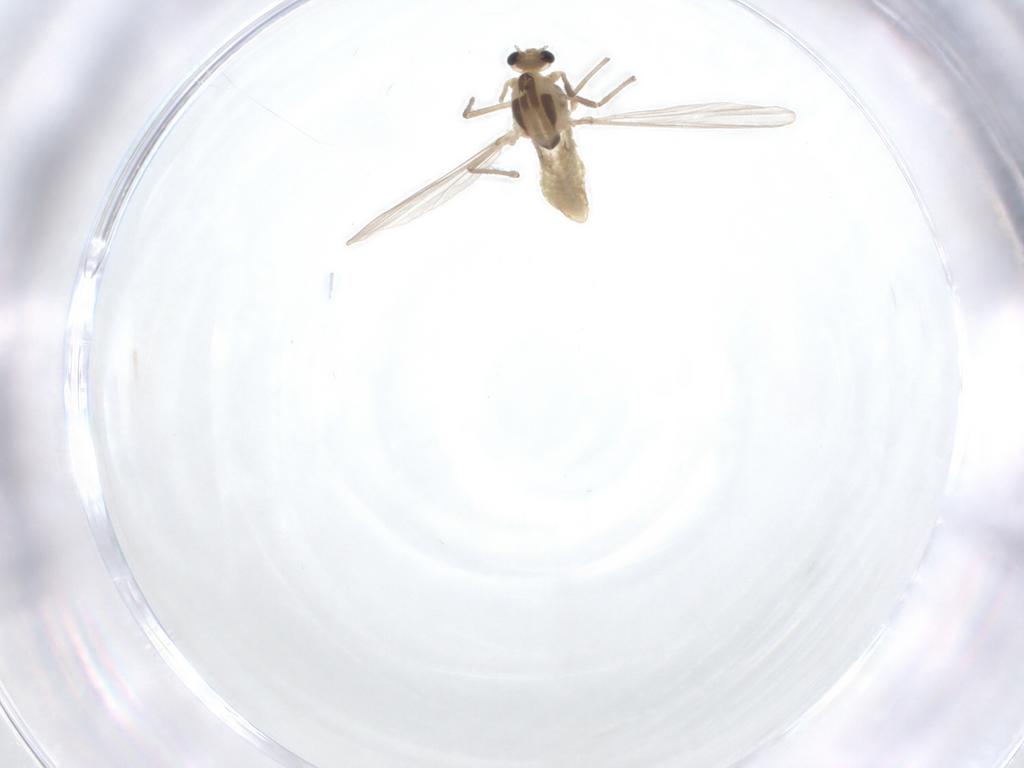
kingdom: Animalia
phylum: Arthropoda
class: Insecta
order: Diptera
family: Chironomidae
